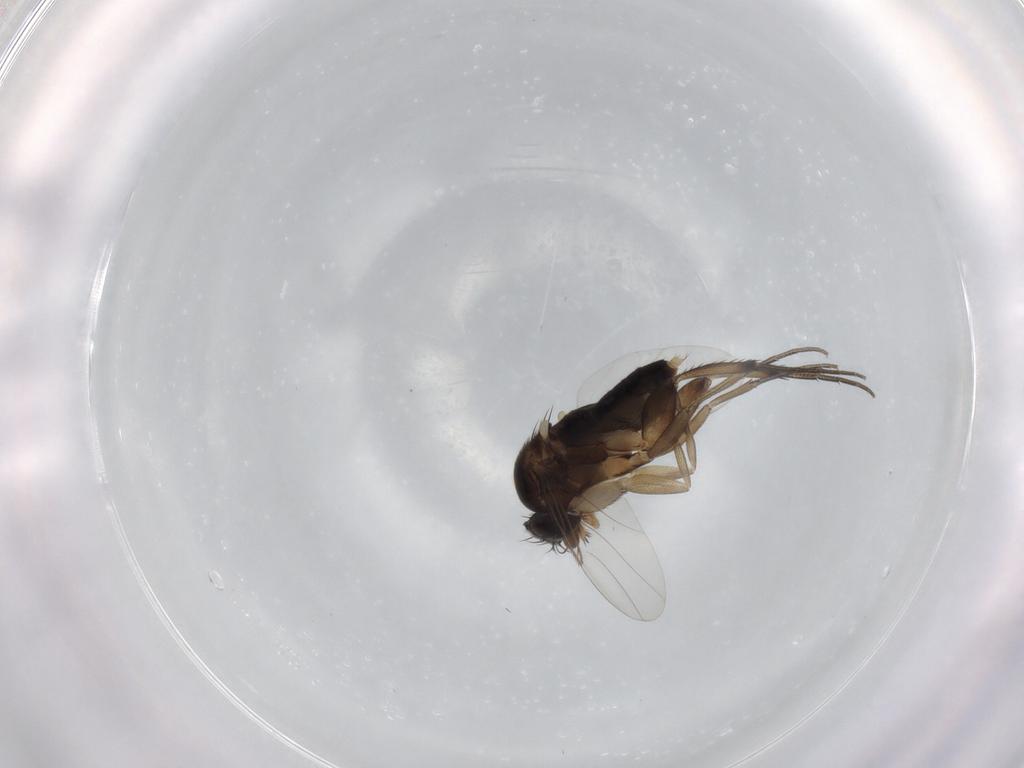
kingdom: Animalia
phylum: Arthropoda
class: Insecta
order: Diptera
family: Phoridae
